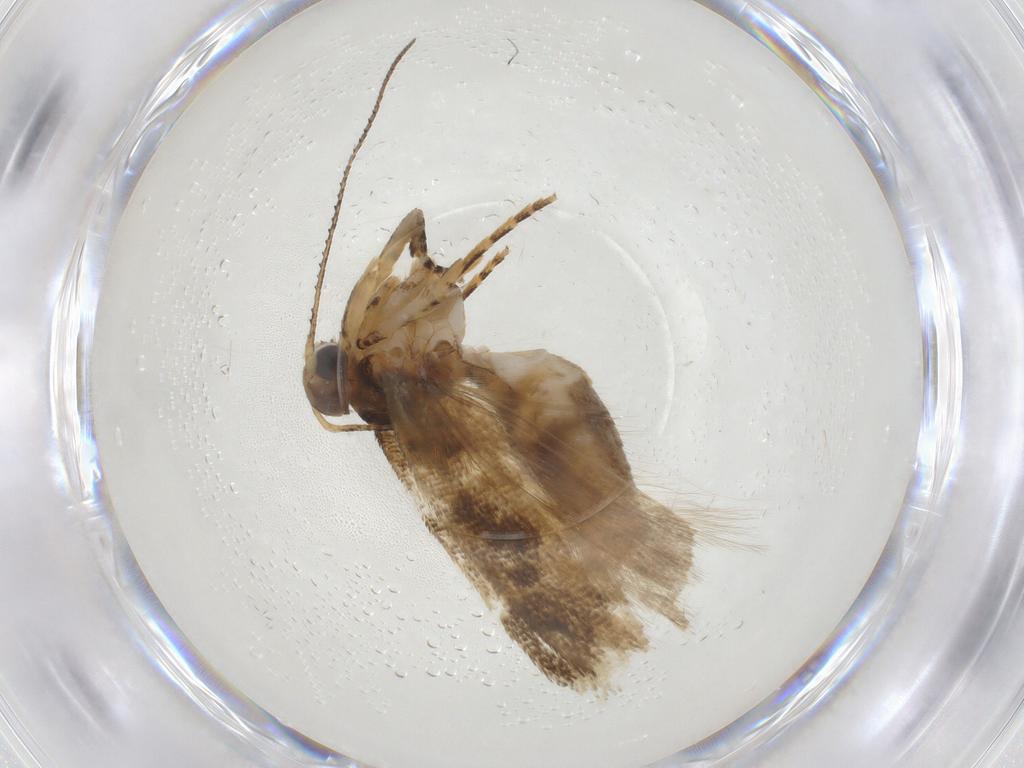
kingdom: Animalia
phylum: Arthropoda
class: Insecta
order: Lepidoptera
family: Gelechiidae
